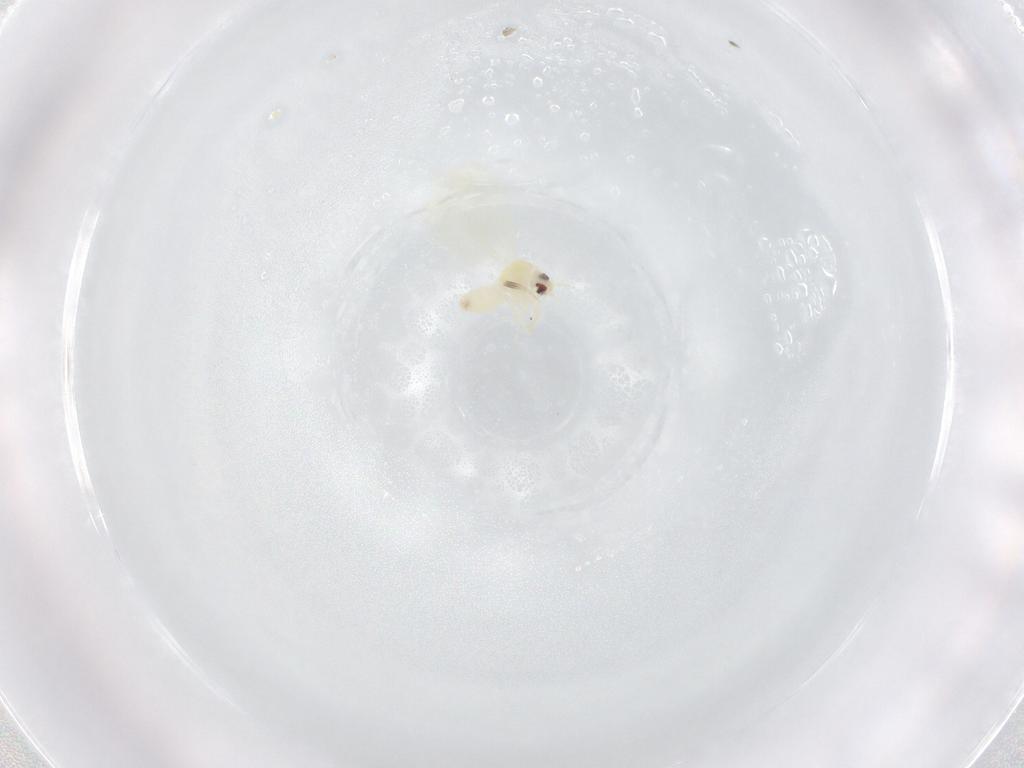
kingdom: Animalia
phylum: Arthropoda
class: Insecta
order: Hemiptera
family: Aleyrodidae
